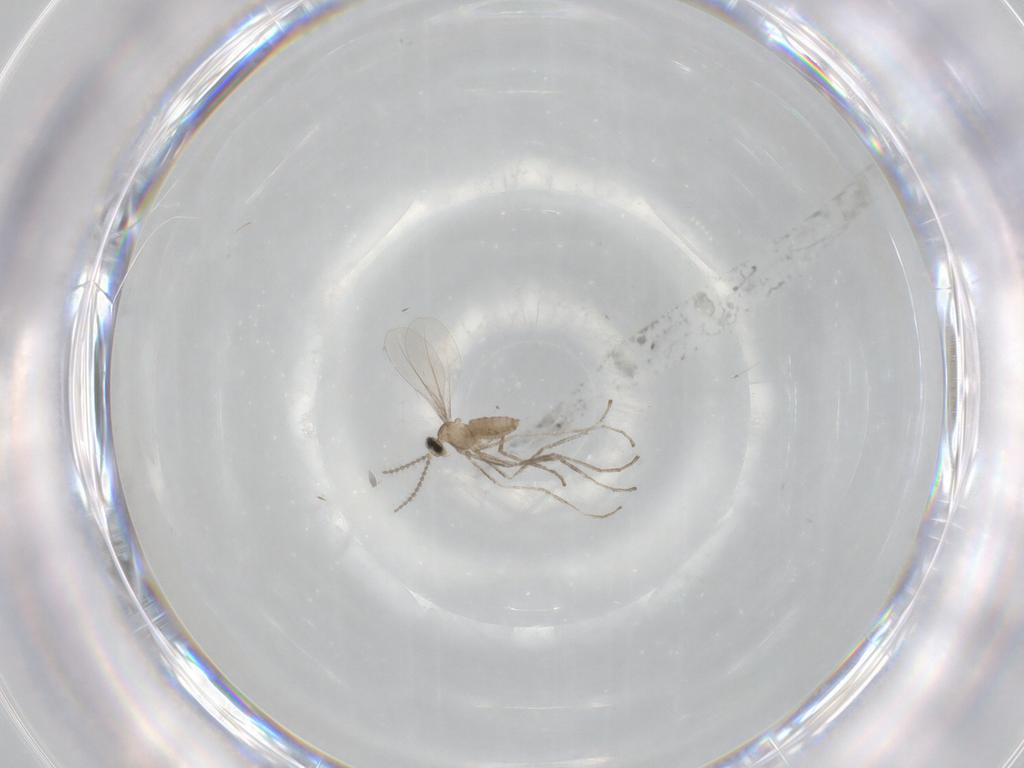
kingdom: Animalia
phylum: Arthropoda
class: Insecta
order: Diptera
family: Cecidomyiidae
